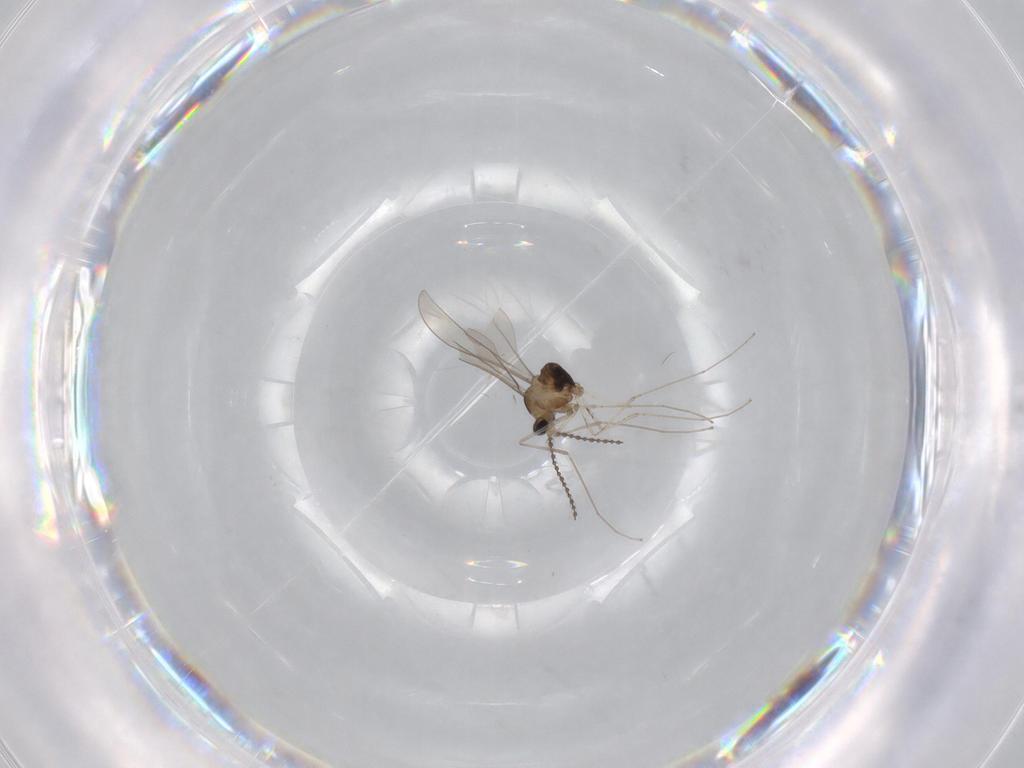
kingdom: Animalia
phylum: Arthropoda
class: Insecta
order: Diptera
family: Cecidomyiidae
